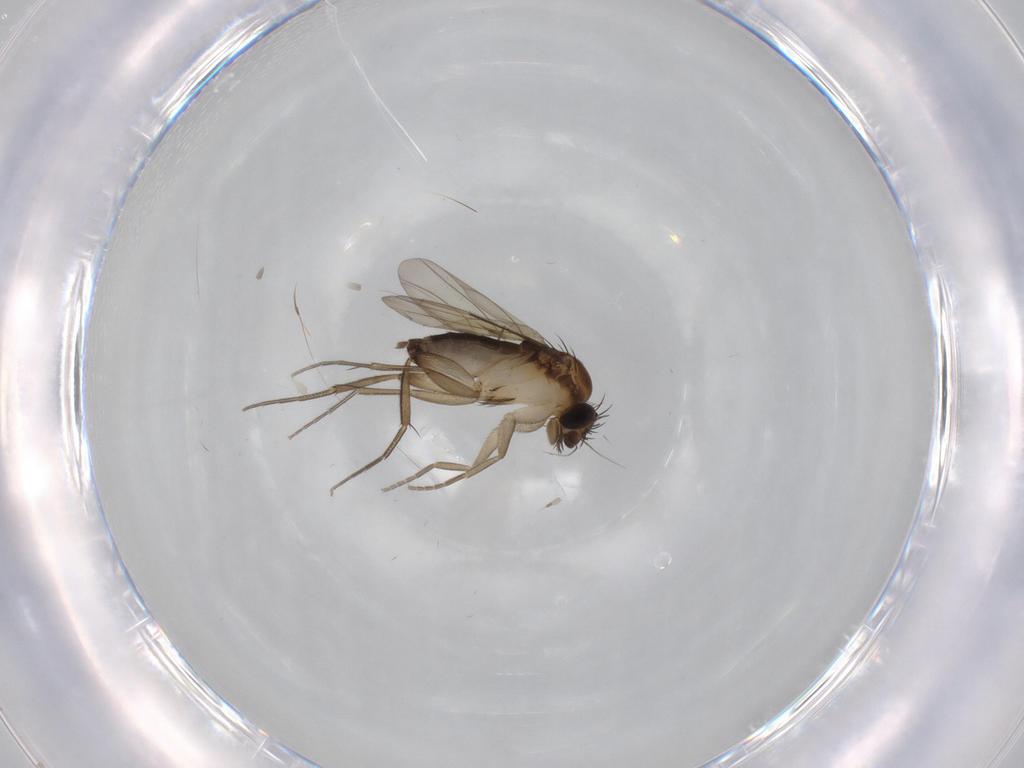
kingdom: Animalia
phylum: Arthropoda
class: Insecta
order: Diptera
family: Phoridae
